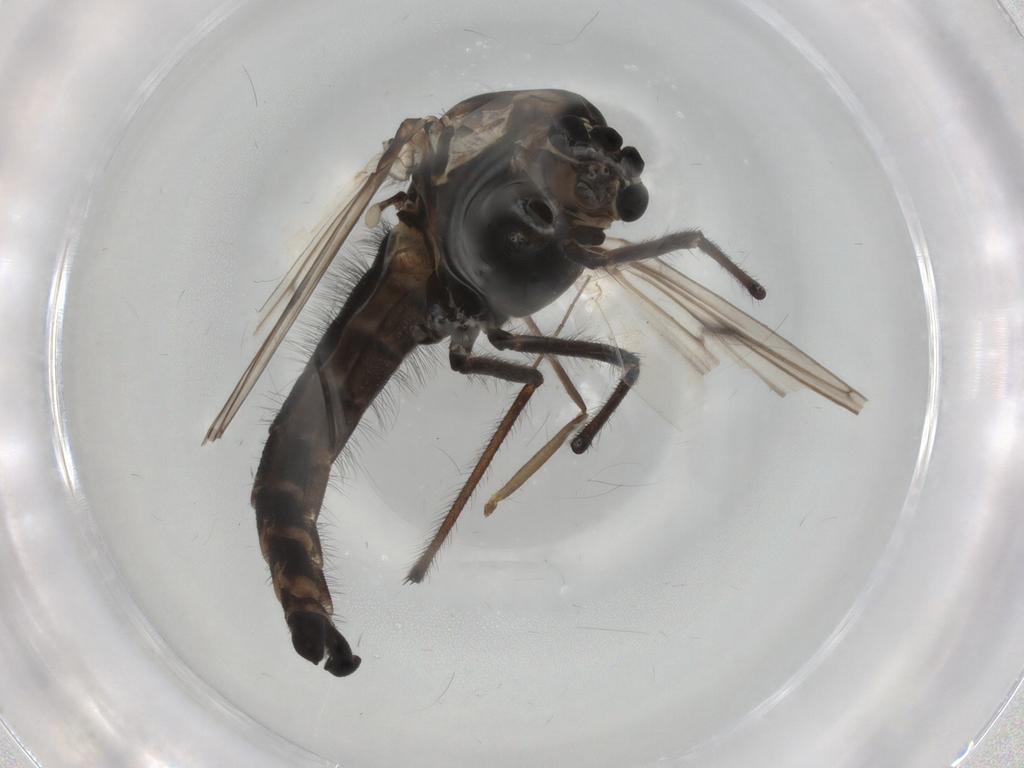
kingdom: Animalia
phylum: Arthropoda
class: Insecta
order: Diptera
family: Chironomidae
